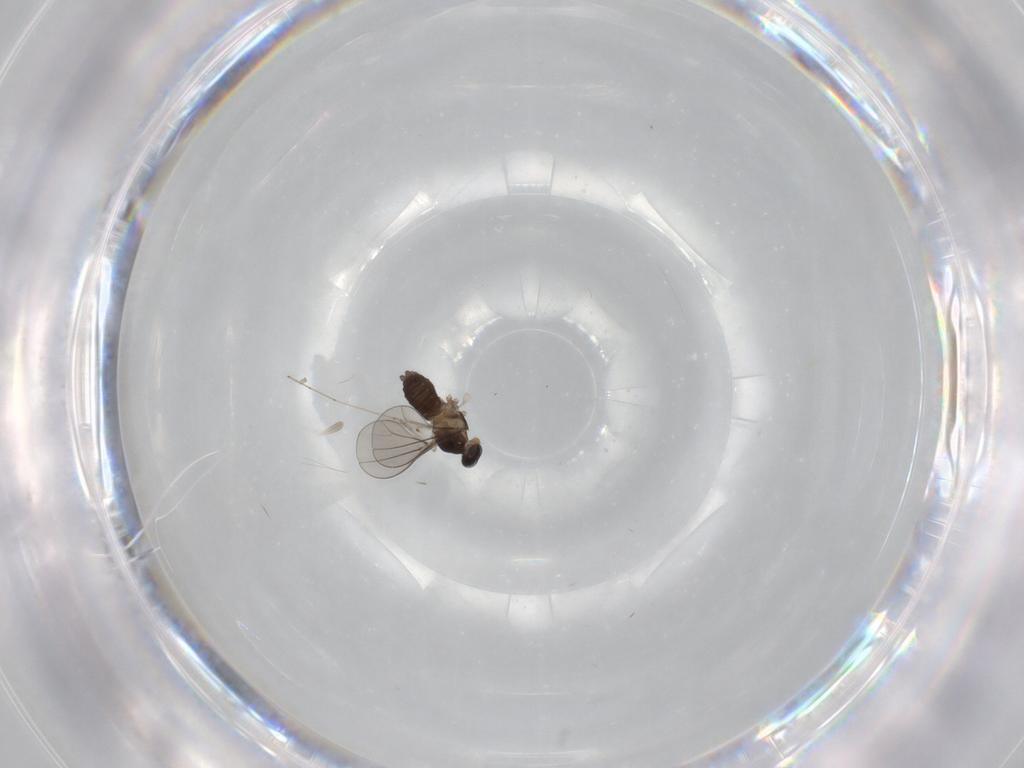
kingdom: Animalia
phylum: Arthropoda
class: Insecta
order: Diptera
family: Cecidomyiidae
